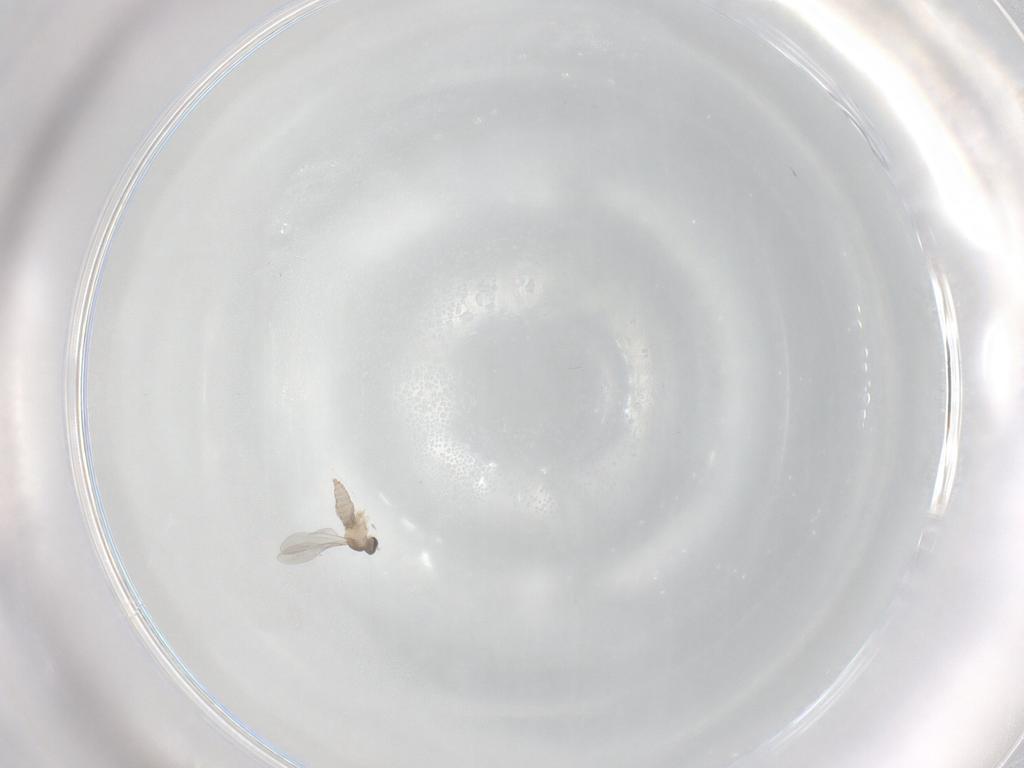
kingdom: Animalia
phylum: Arthropoda
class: Insecta
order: Diptera
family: Cecidomyiidae
